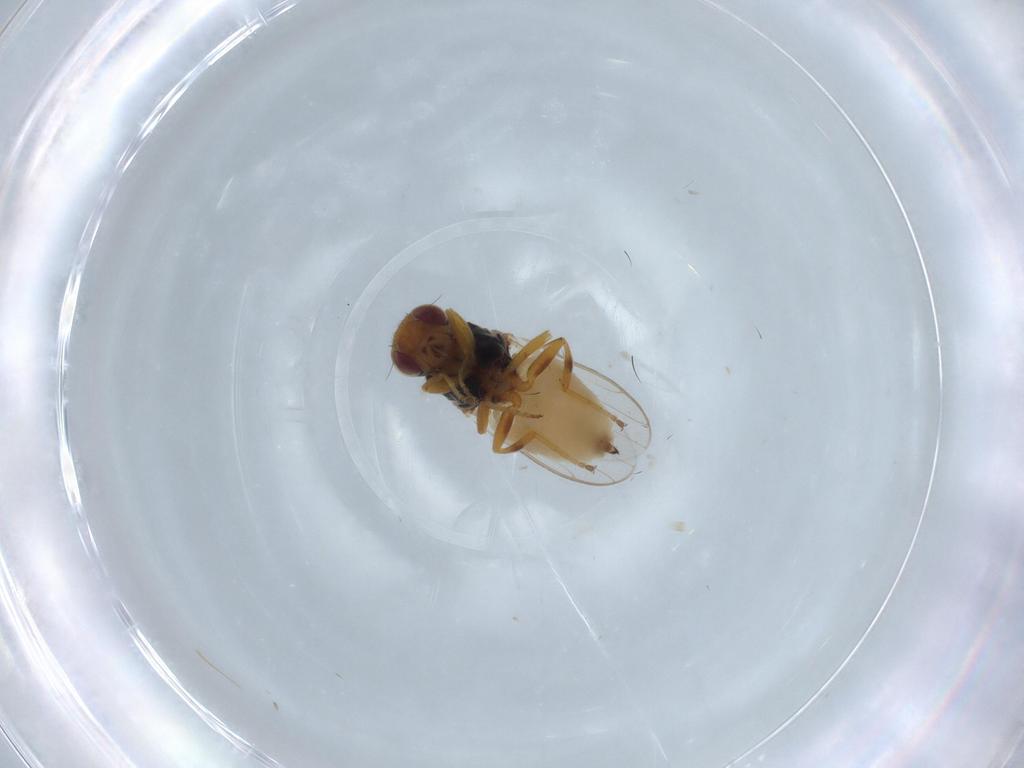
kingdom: Animalia
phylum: Arthropoda
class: Insecta
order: Diptera
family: Chloropidae
